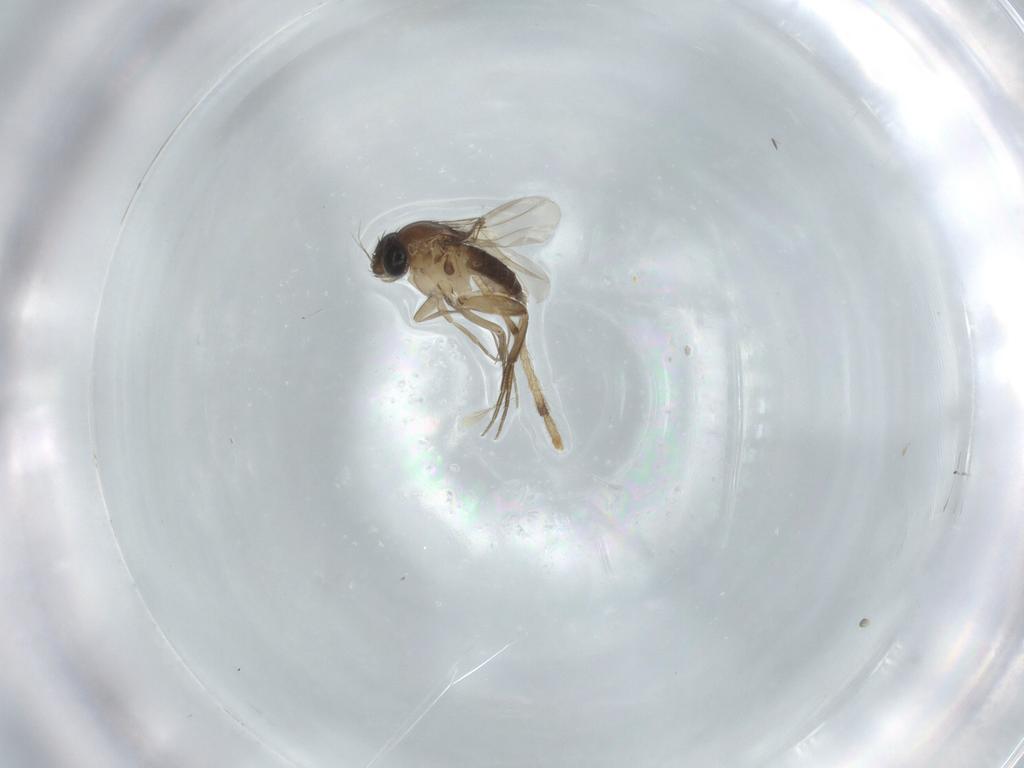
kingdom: Animalia
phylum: Arthropoda
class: Insecta
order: Diptera
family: Phoridae
